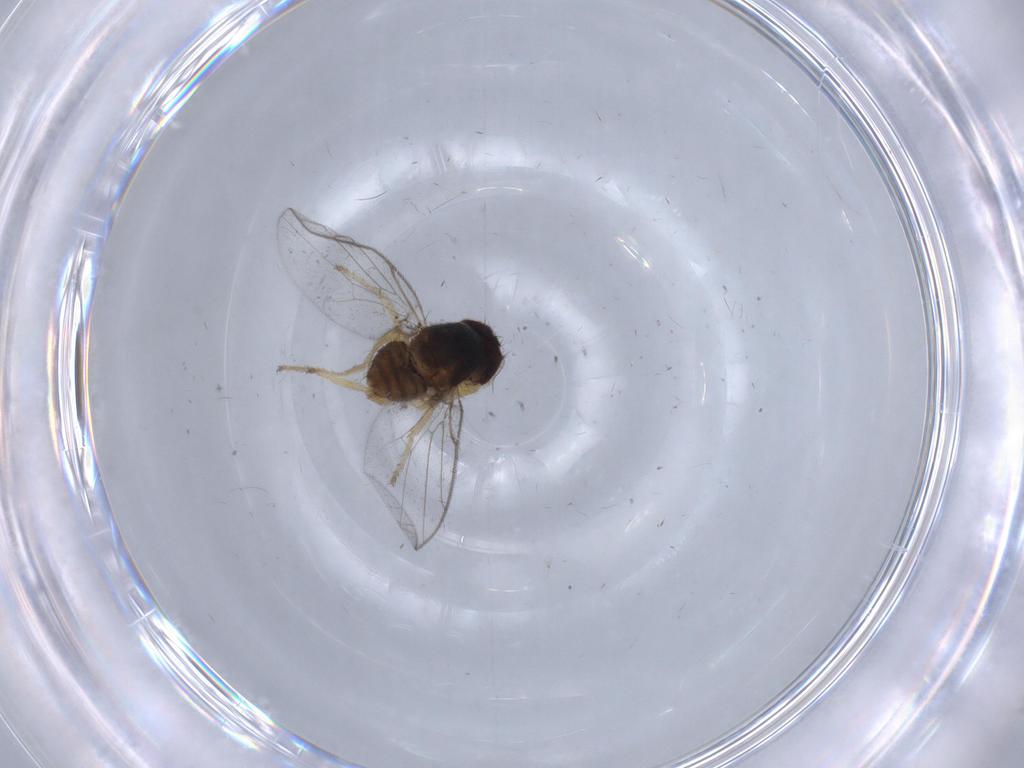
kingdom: Animalia
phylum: Arthropoda
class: Insecta
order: Diptera
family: Chloropidae
